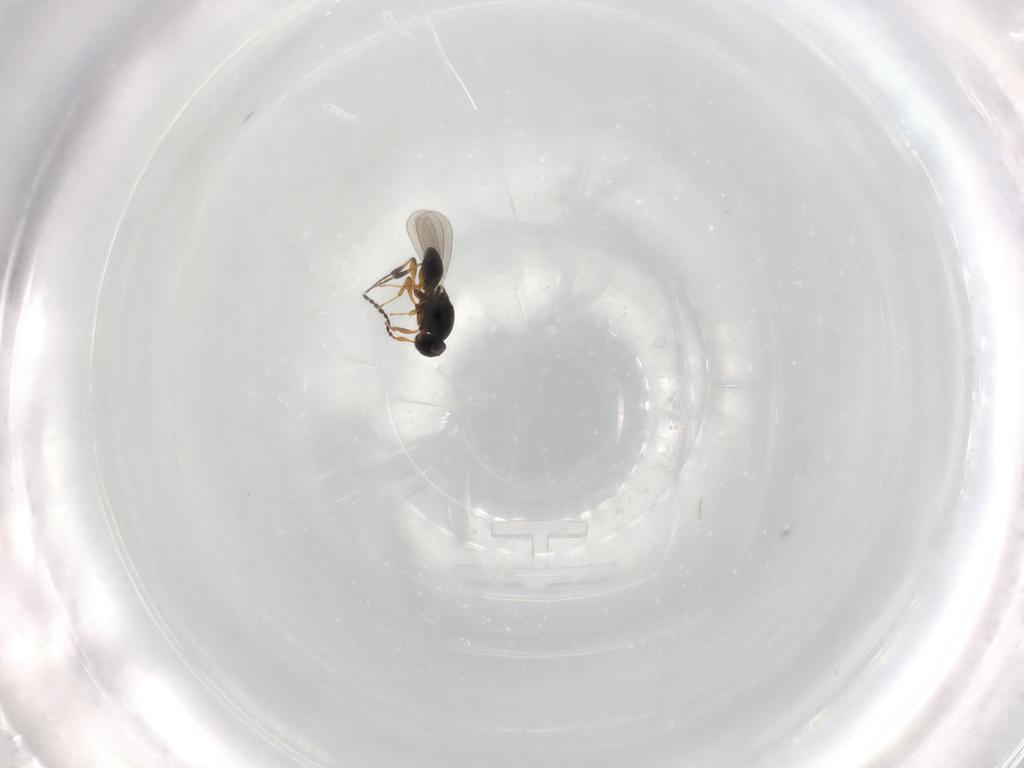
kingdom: Animalia
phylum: Arthropoda
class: Insecta
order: Hymenoptera
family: Platygastridae
